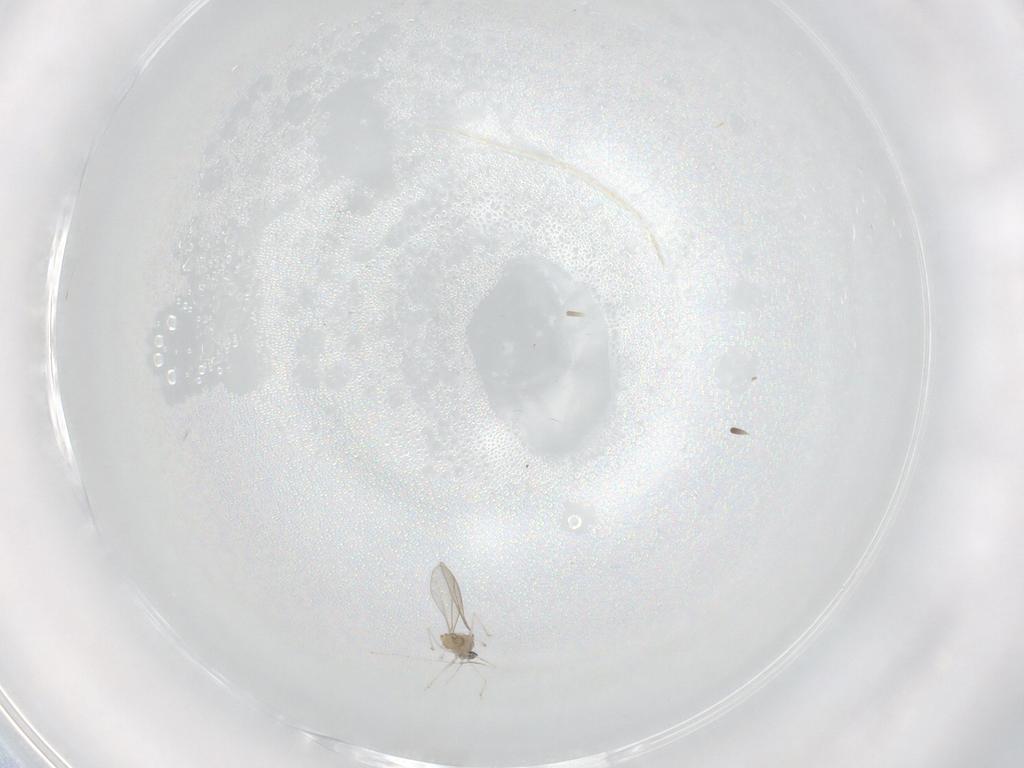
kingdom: Animalia
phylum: Arthropoda
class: Insecta
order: Diptera
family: Cecidomyiidae
